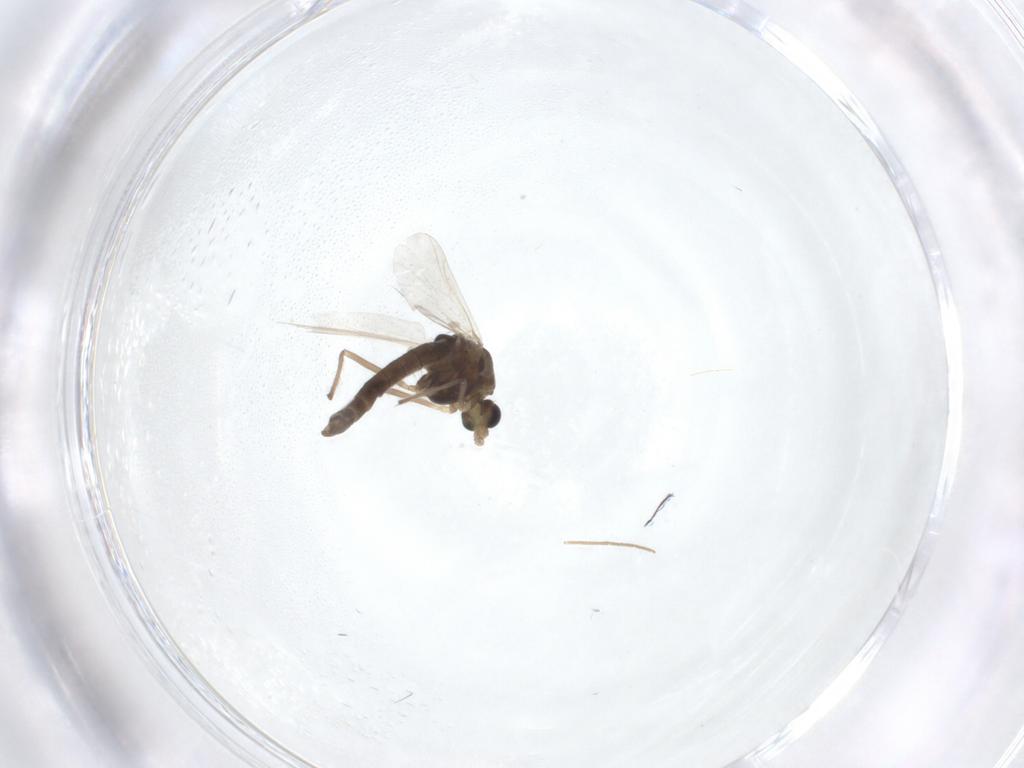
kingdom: Animalia
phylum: Arthropoda
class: Insecta
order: Diptera
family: Chironomidae
